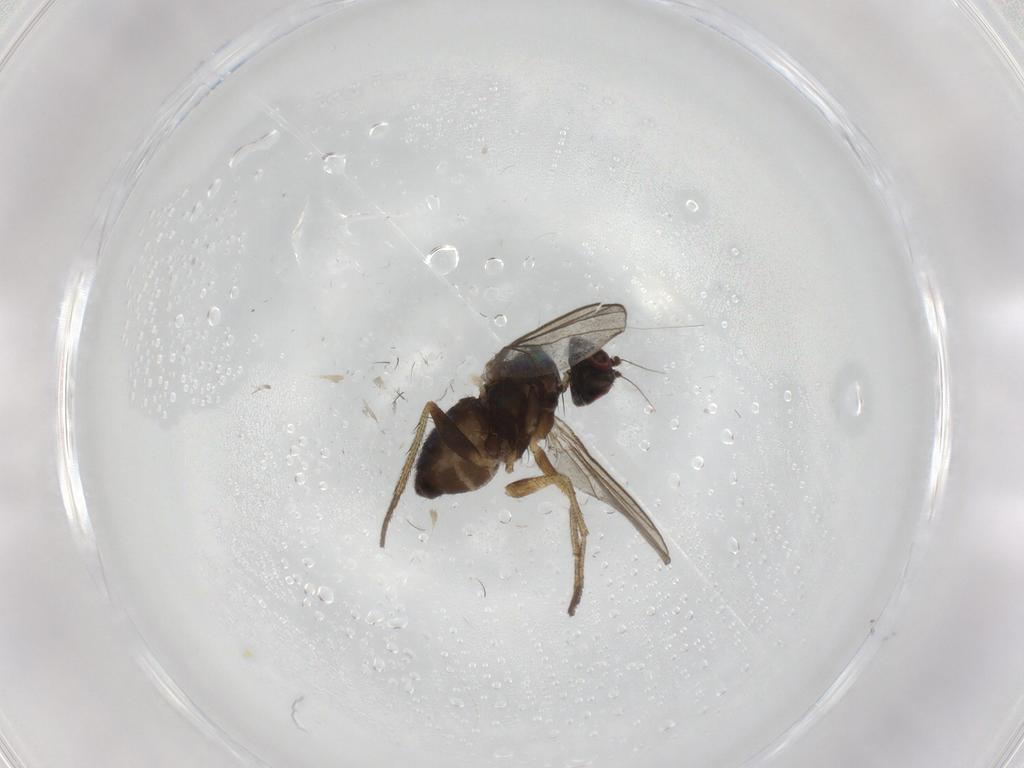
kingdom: Animalia
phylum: Arthropoda
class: Insecta
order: Diptera
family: Dolichopodidae
